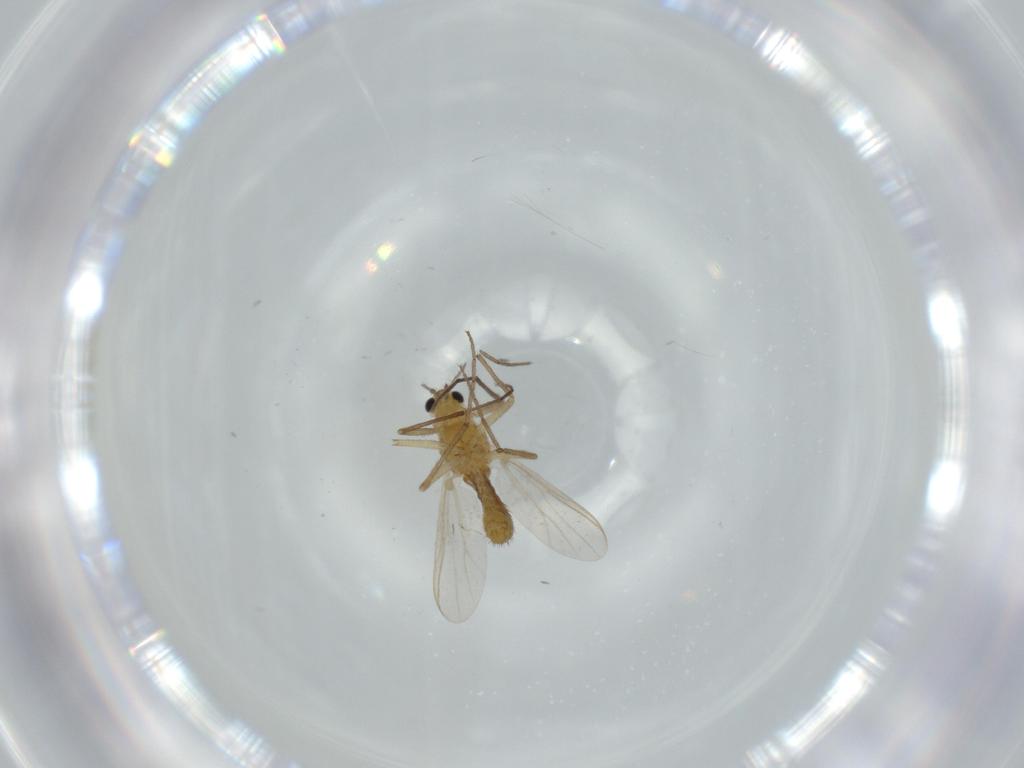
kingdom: Animalia
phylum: Arthropoda
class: Insecta
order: Diptera
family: Chironomidae
